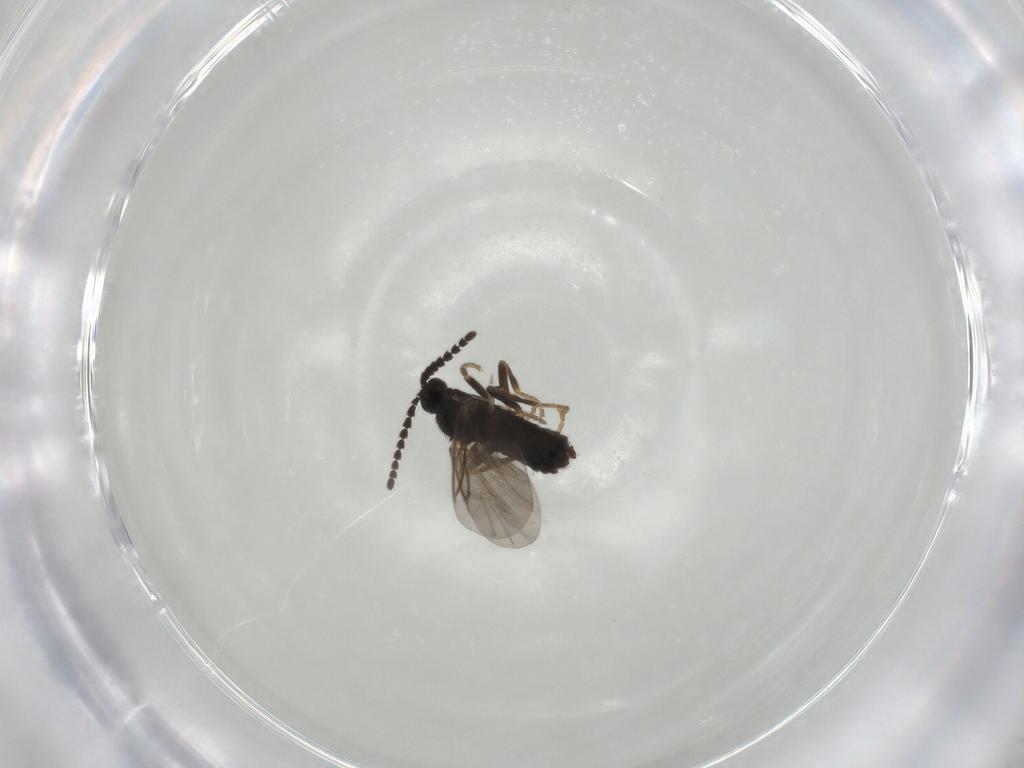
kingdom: Animalia
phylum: Arthropoda
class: Insecta
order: Diptera
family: Scatopsidae
